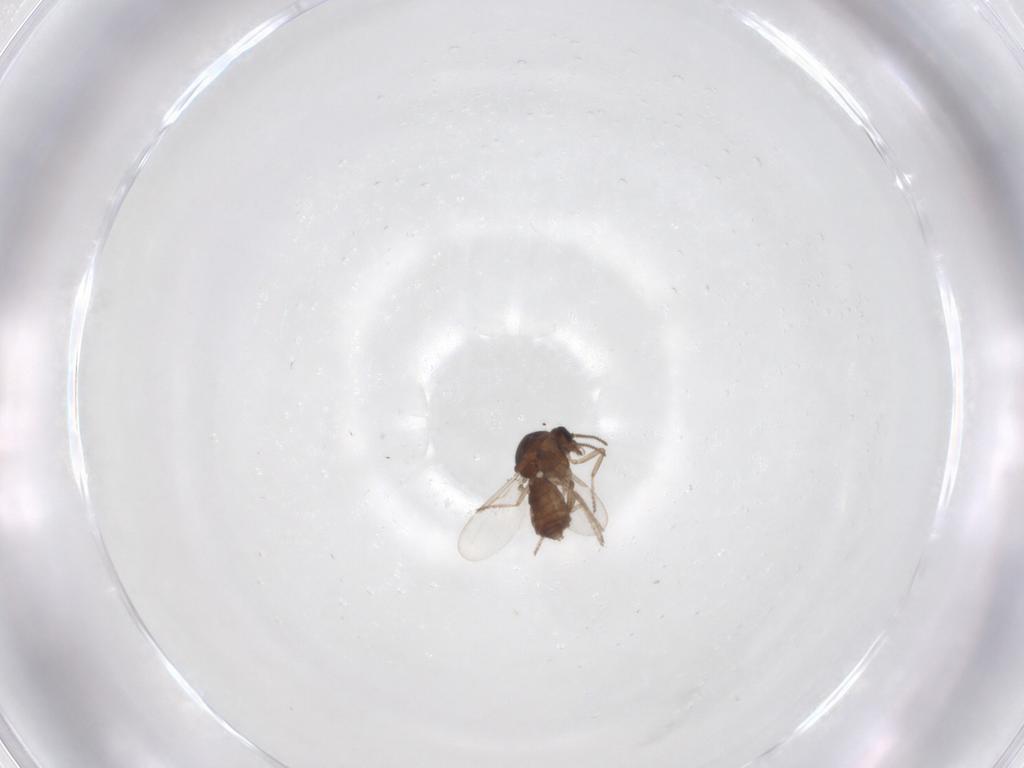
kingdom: Animalia
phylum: Arthropoda
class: Insecta
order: Diptera
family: Ceratopogonidae
